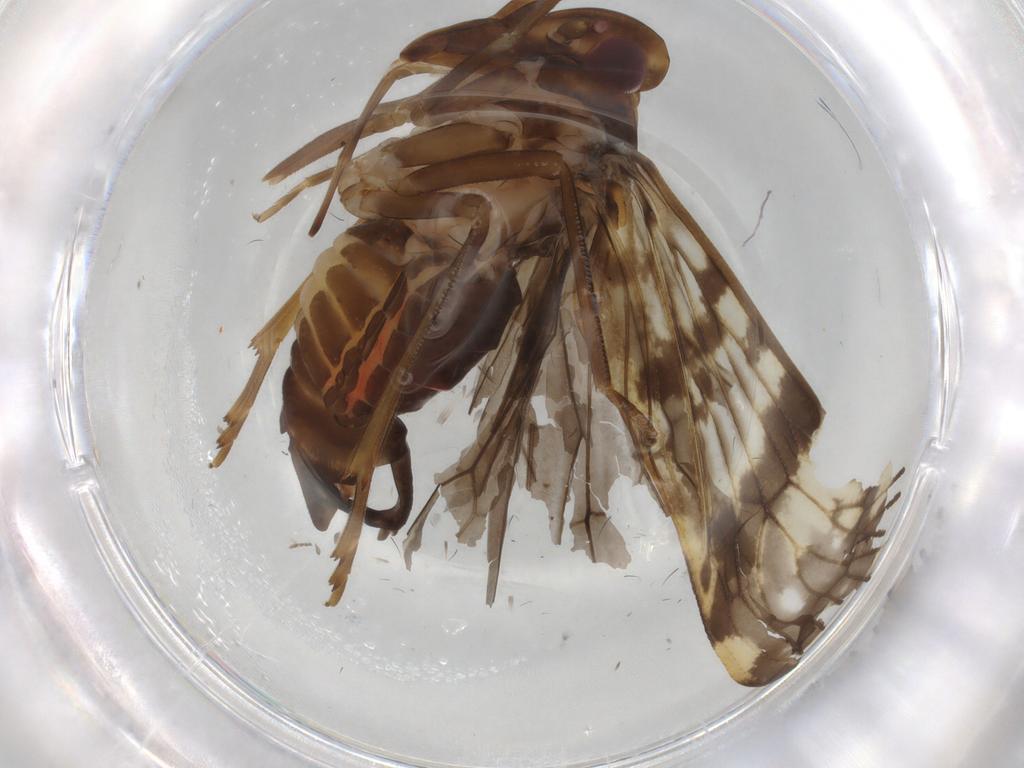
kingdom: Animalia
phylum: Arthropoda
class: Insecta
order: Hemiptera
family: Cixiidae
